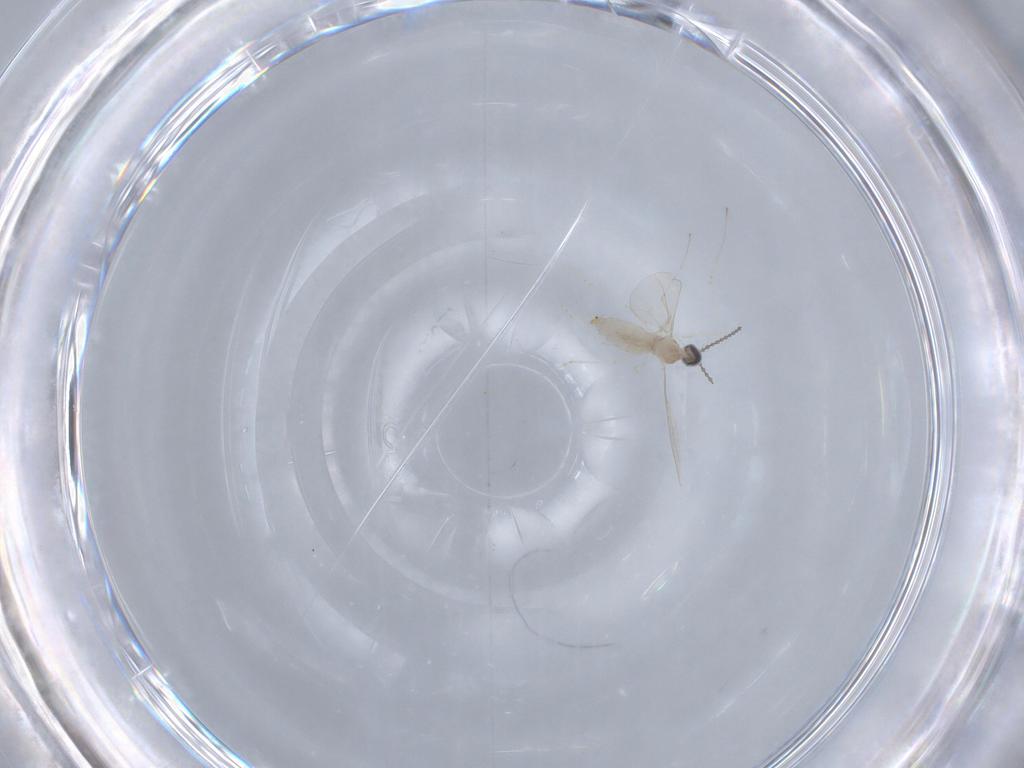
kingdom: Animalia
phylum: Arthropoda
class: Insecta
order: Diptera
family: Cecidomyiidae
